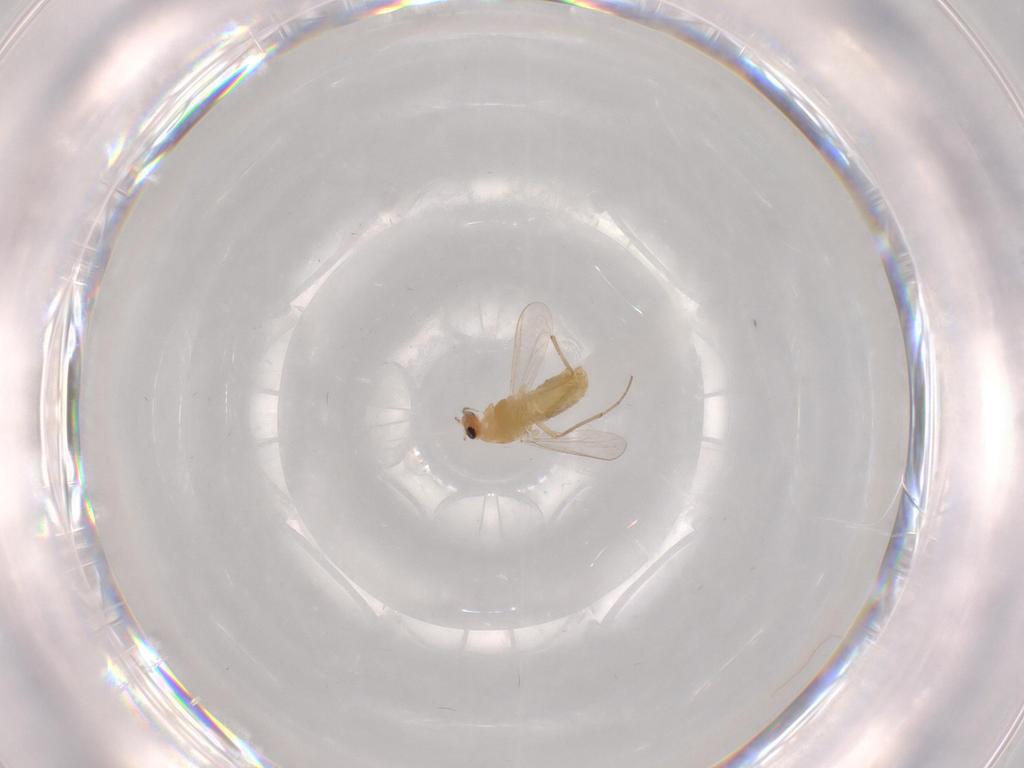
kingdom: Animalia
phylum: Arthropoda
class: Insecta
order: Diptera
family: Chironomidae
